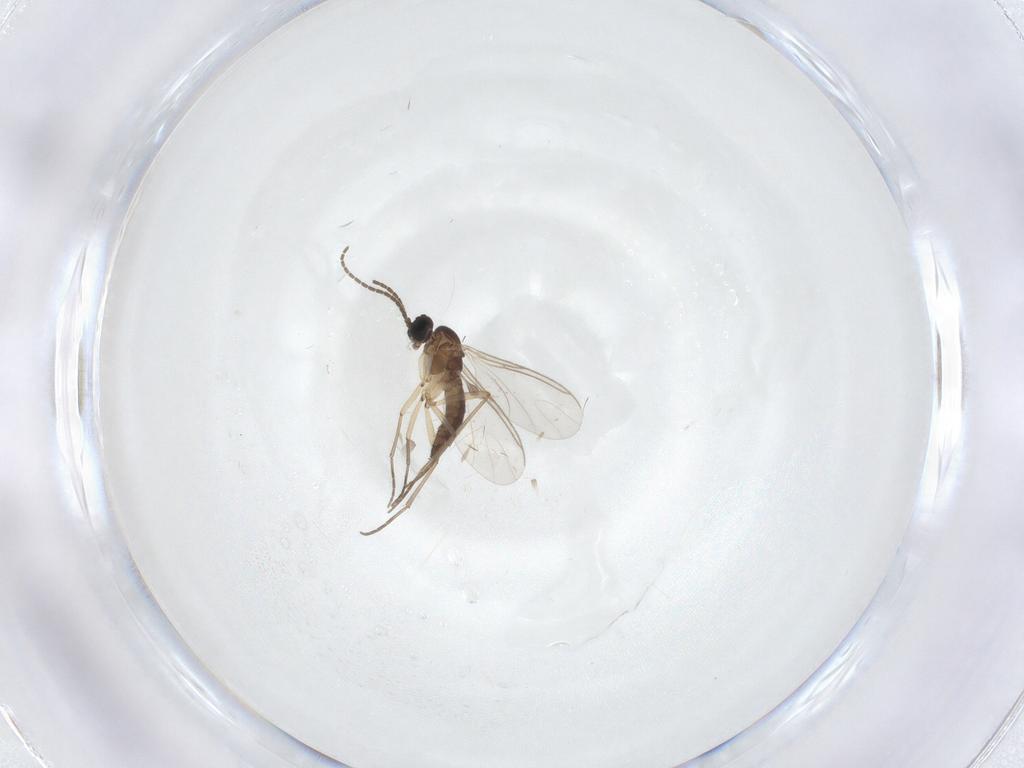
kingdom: Animalia
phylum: Arthropoda
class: Insecta
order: Diptera
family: Sciaridae
